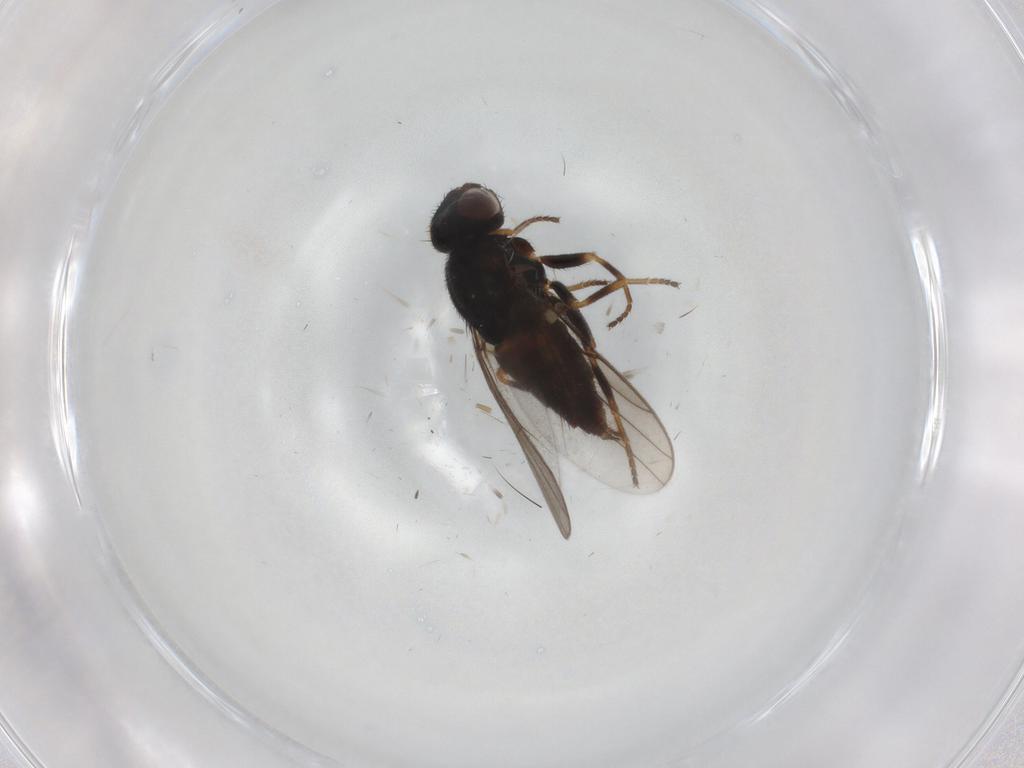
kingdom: Animalia
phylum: Arthropoda
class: Insecta
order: Diptera
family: Chloropidae
